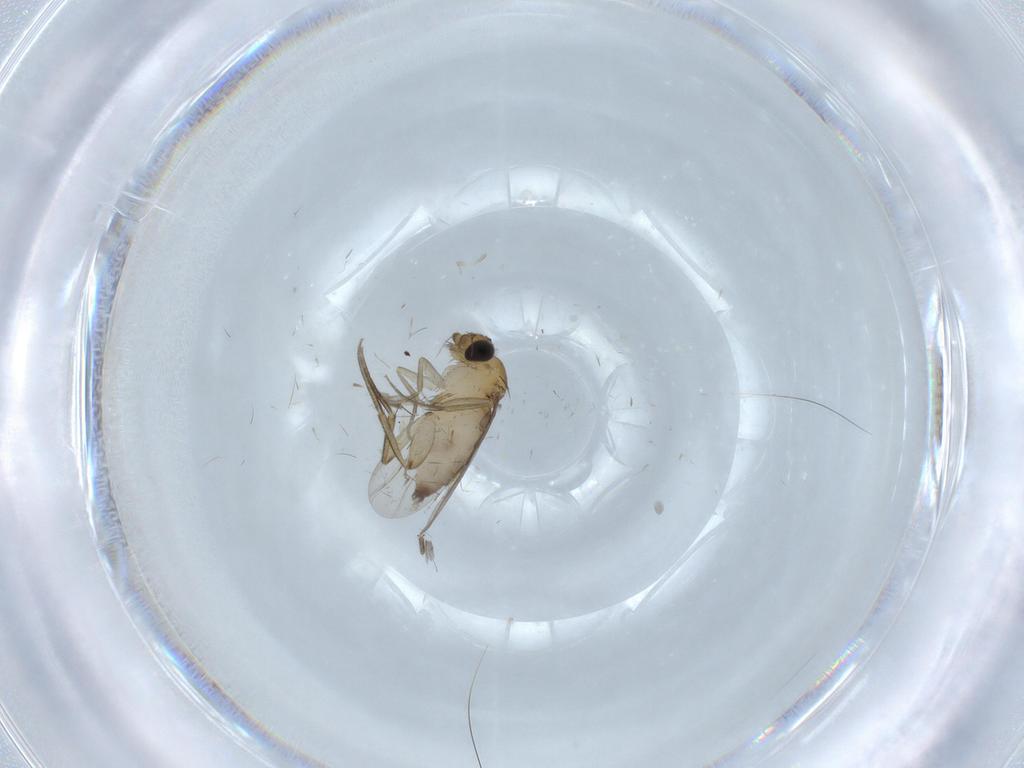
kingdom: Animalia
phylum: Arthropoda
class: Insecta
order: Diptera
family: Phoridae
